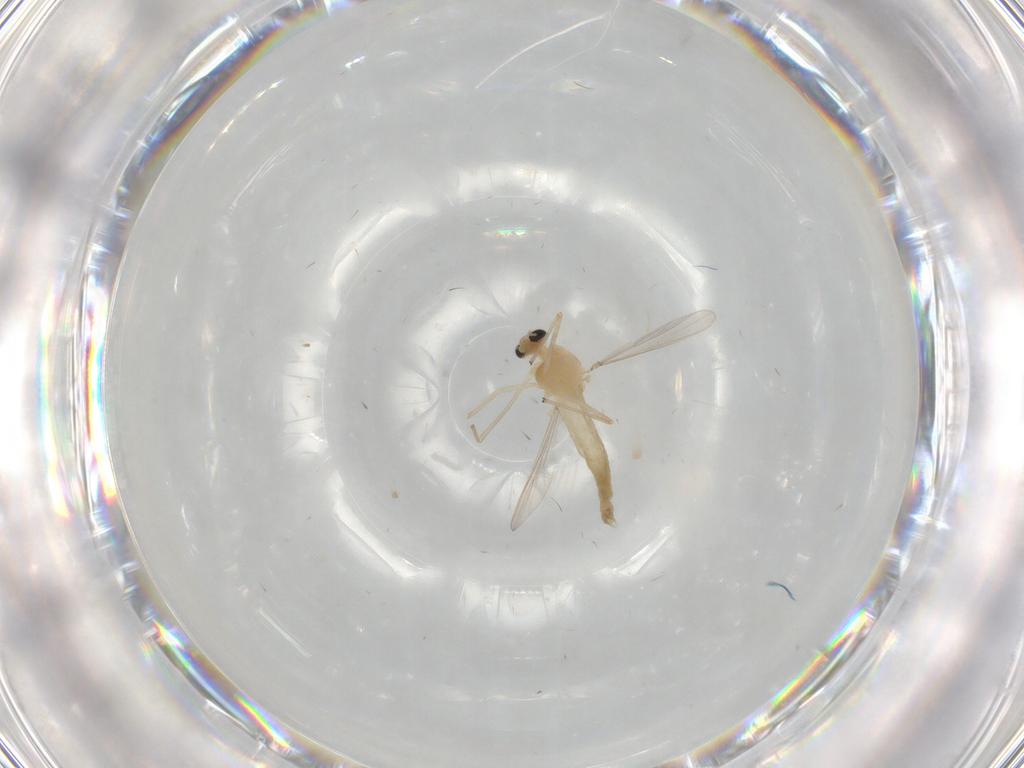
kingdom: Animalia
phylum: Arthropoda
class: Insecta
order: Diptera
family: Chironomidae
